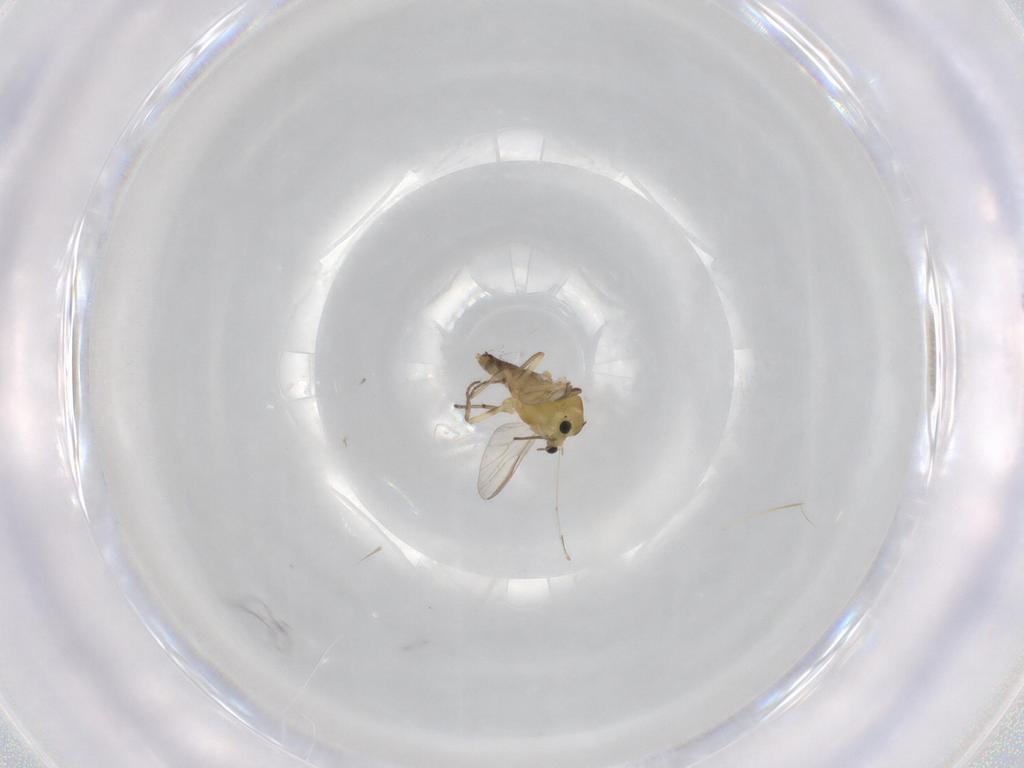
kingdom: Animalia
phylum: Arthropoda
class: Insecta
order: Diptera
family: Chironomidae
